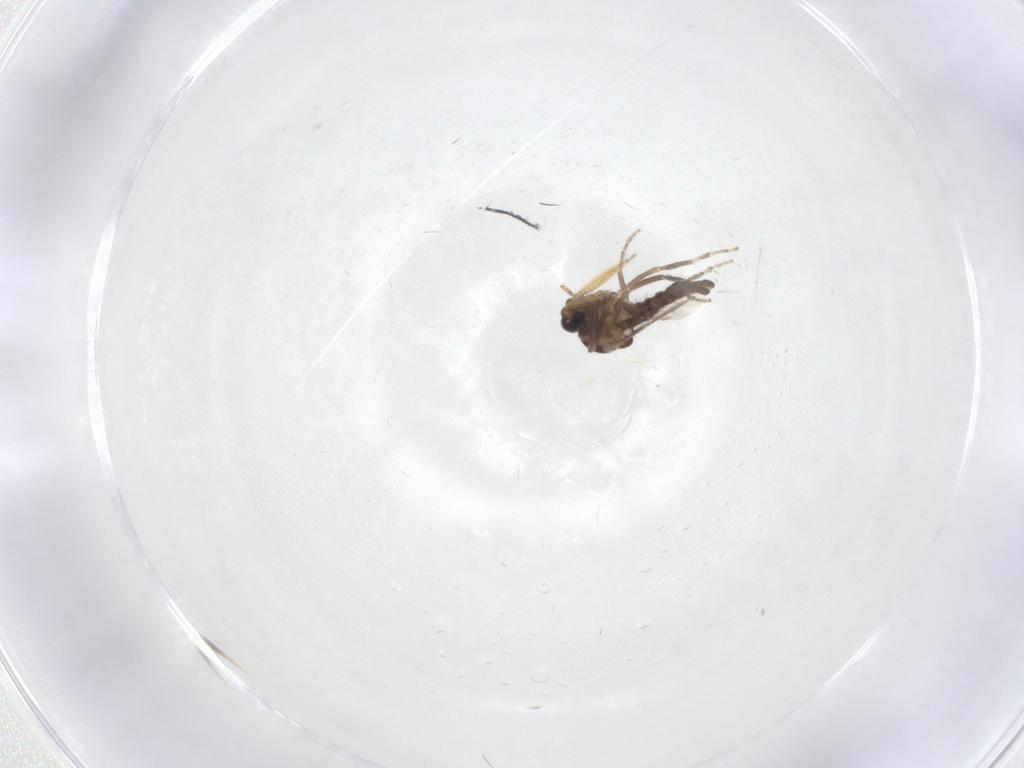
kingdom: Animalia
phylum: Arthropoda
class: Insecta
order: Diptera
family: Ceratopogonidae
